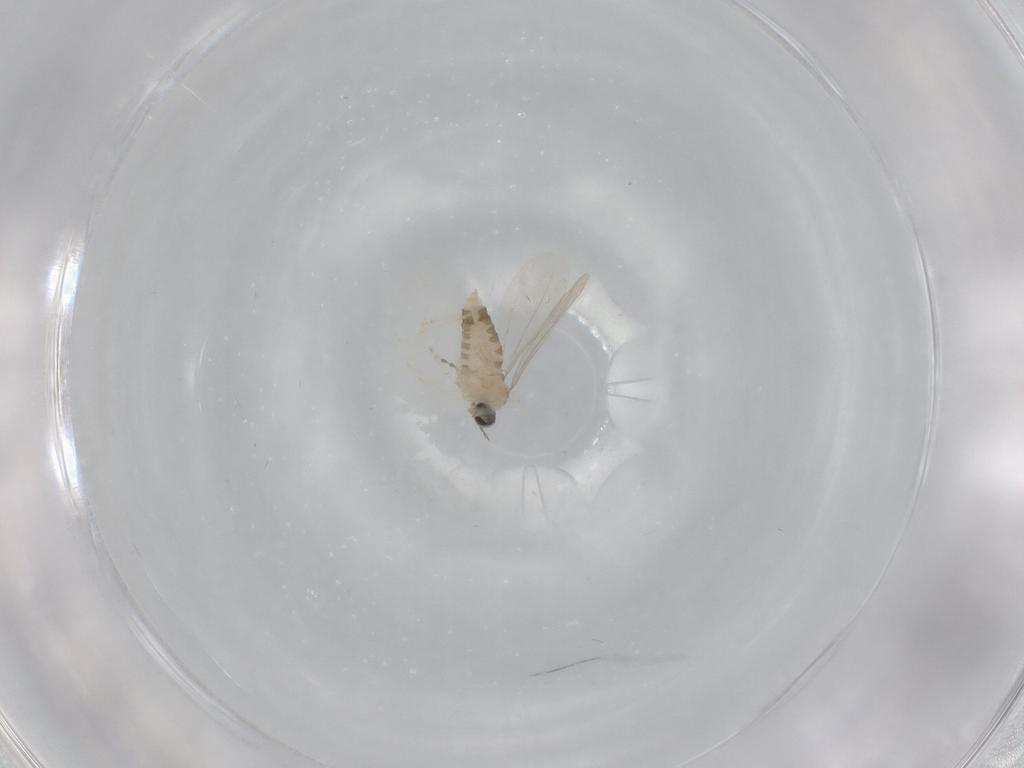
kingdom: Animalia
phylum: Arthropoda
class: Insecta
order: Diptera
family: Cecidomyiidae
